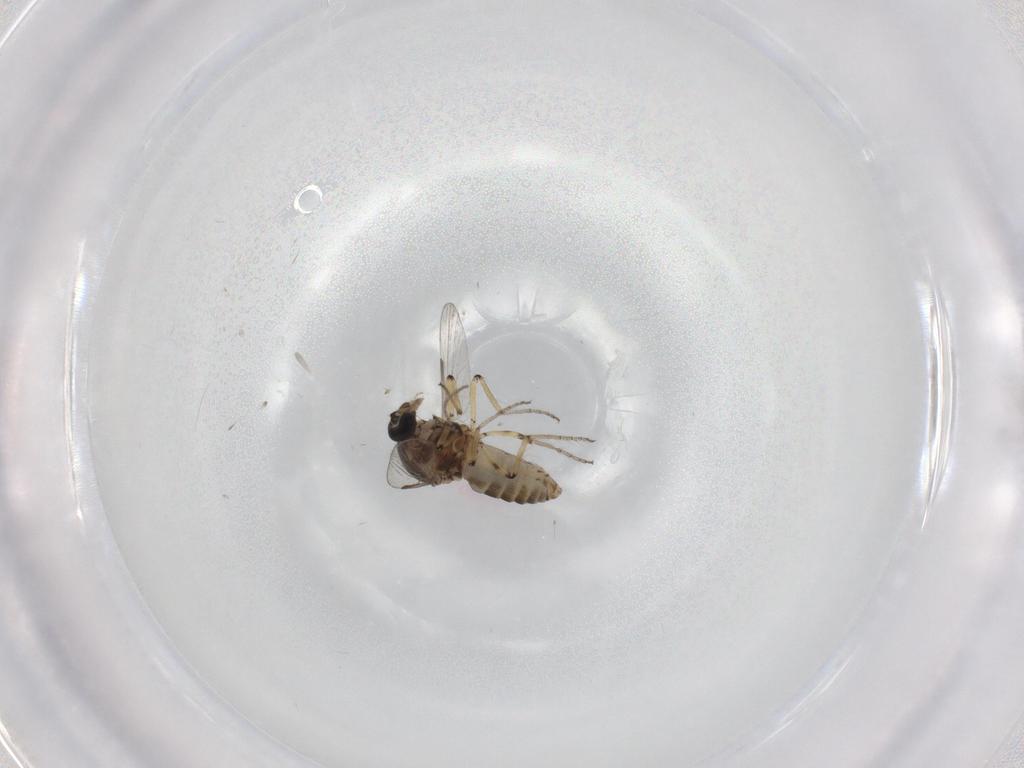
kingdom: Animalia
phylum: Arthropoda
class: Insecta
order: Diptera
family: Ceratopogonidae
